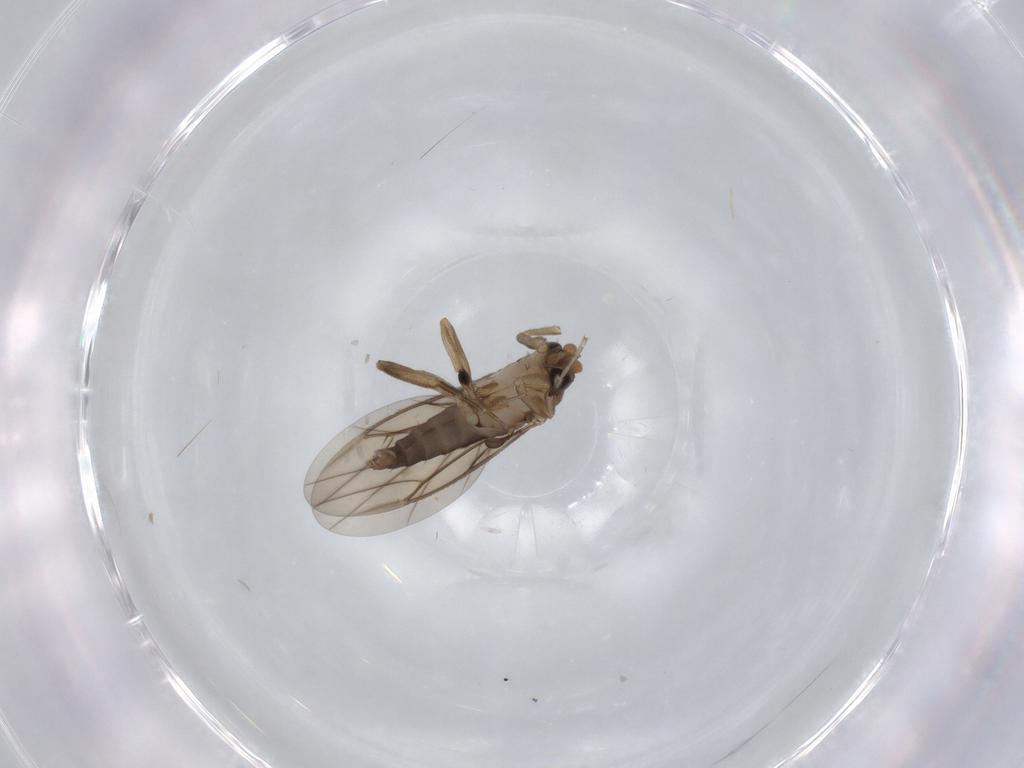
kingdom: Animalia
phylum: Arthropoda
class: Insecta
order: Diptera
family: Phoridae
